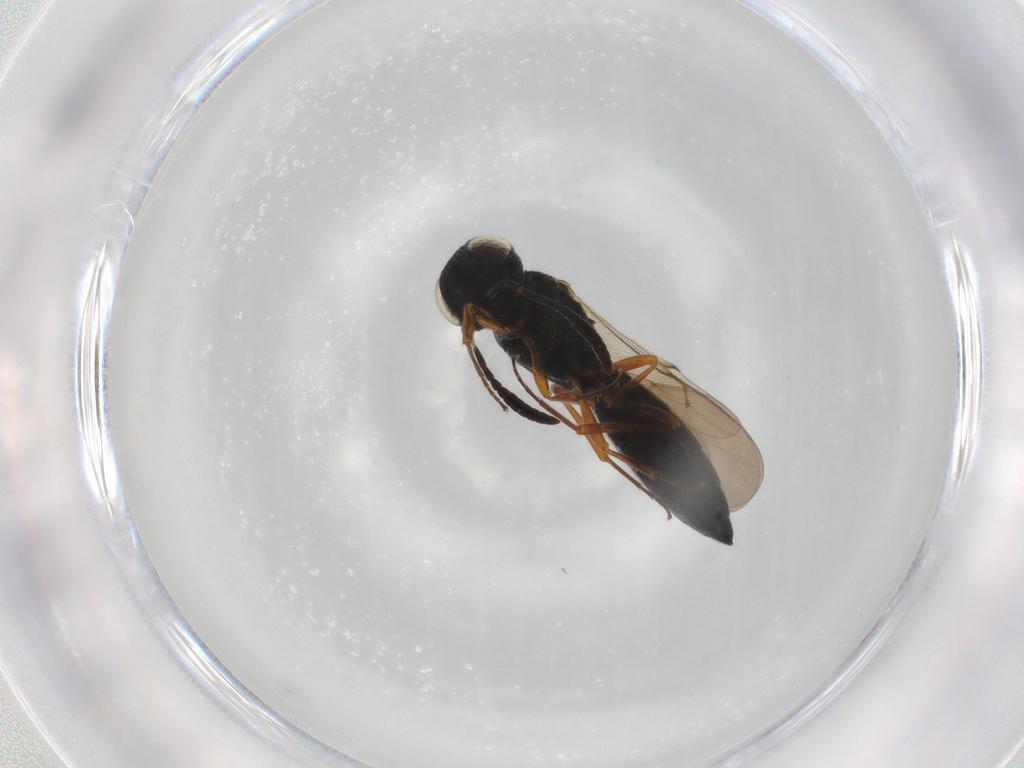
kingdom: Animalia
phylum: Arthropoda
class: Insecta
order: Hymenoptera
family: Scelionidae
